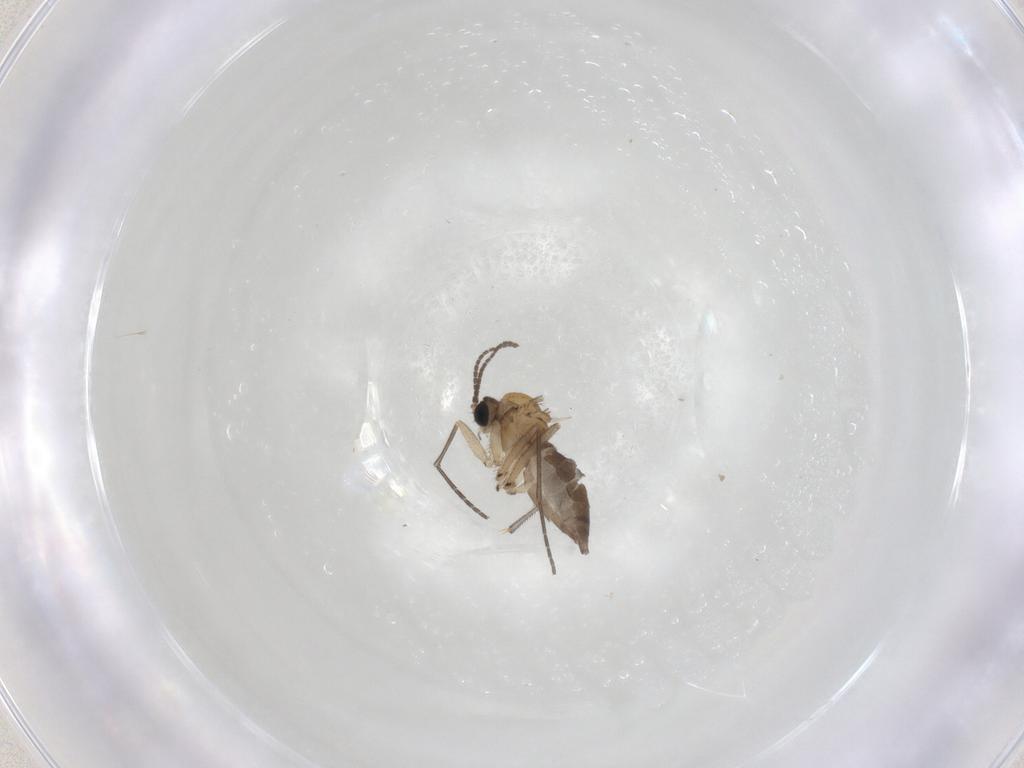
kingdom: Animalia
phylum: Arthropoda
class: Insecta
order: Diptera
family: Sciaridae
